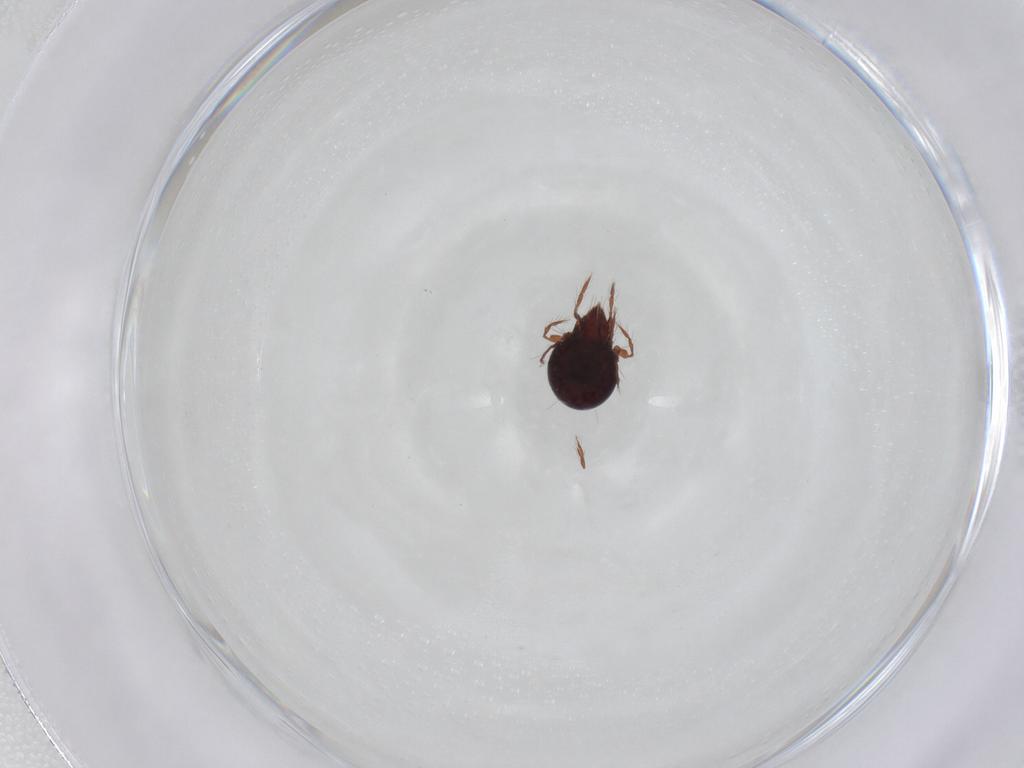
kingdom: Animalia
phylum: Arthropoda
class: Arachnida
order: Sarcoptiformes
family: Ceratoppiidae
